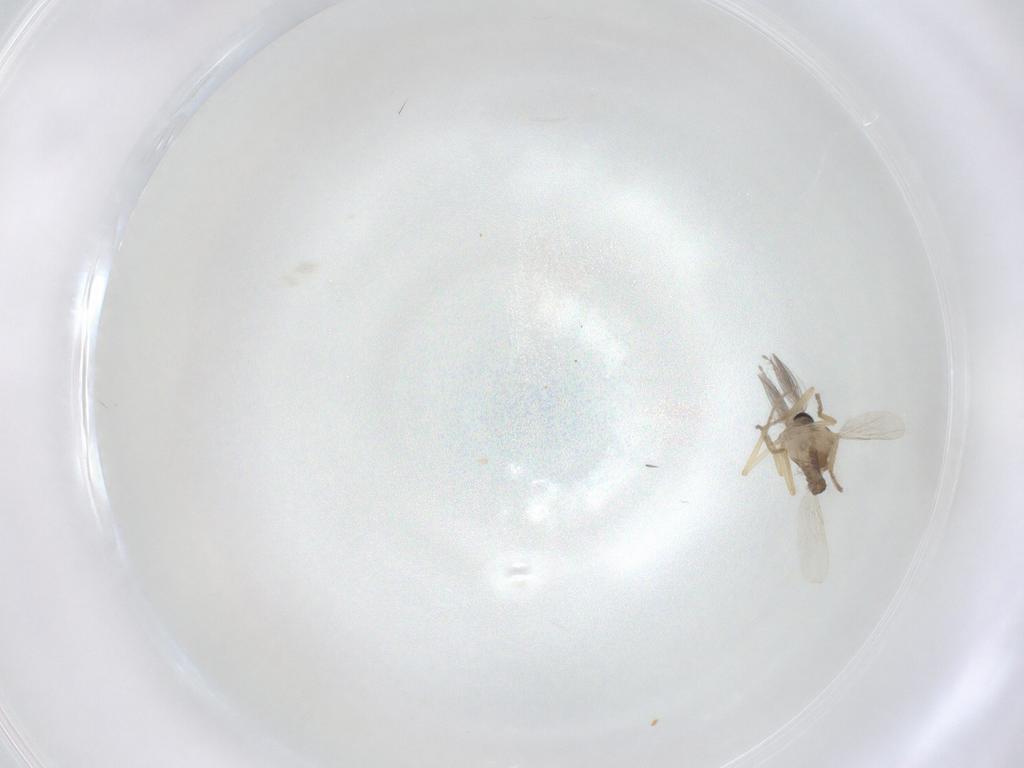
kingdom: Animalia
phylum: Arthropoda
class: Insecta
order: Diptera
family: Ceratopogonidae
